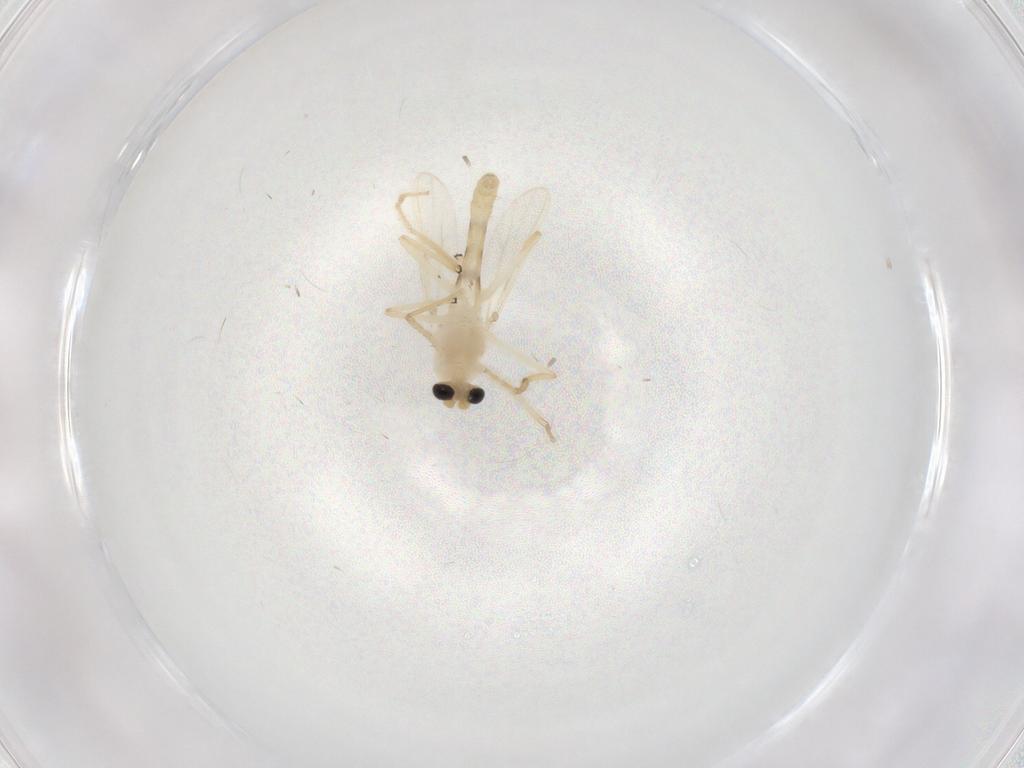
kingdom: Animalia
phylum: Arthropoda
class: Insecta
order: Diptera
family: Chironomidae
